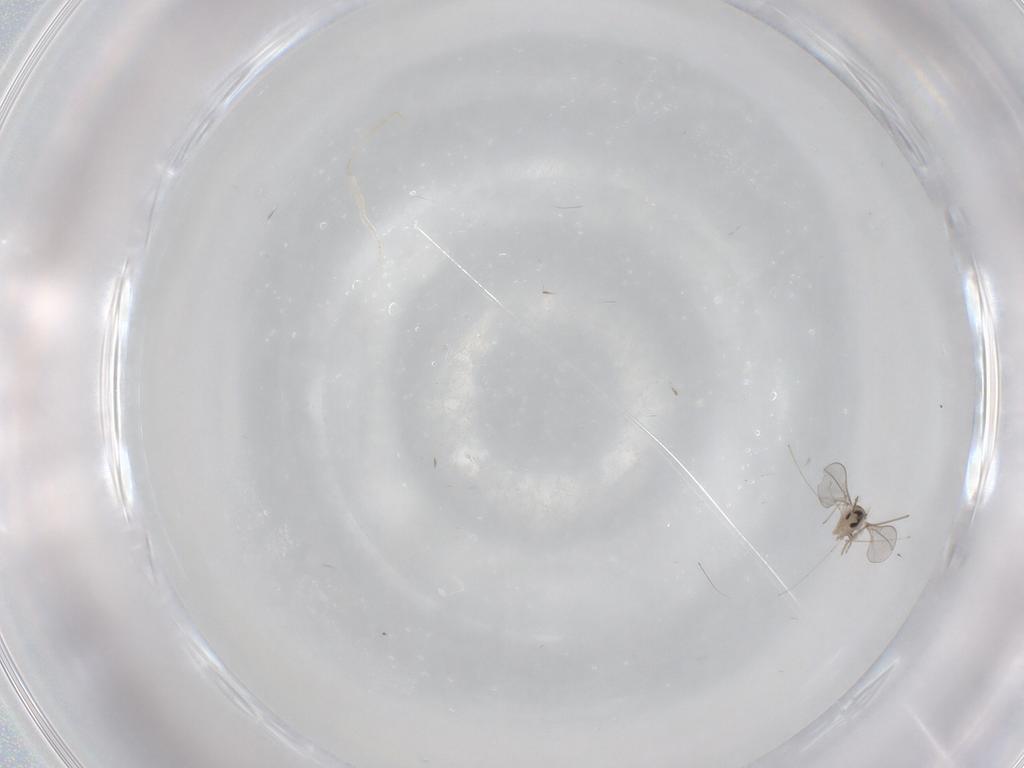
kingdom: Animalia
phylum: Arthropoda
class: Insecta
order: Diptera
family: Cecidomyiidae
